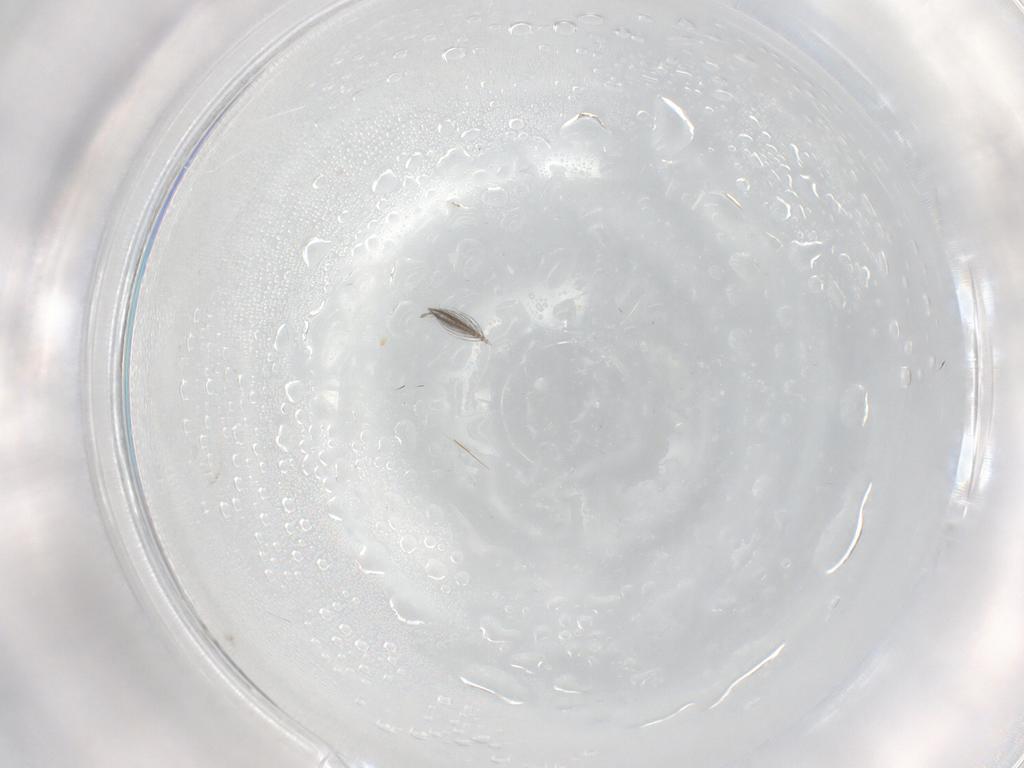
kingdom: Animalia
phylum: Arthropoda
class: Insecta
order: Diptera
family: Ceratopogonidae
